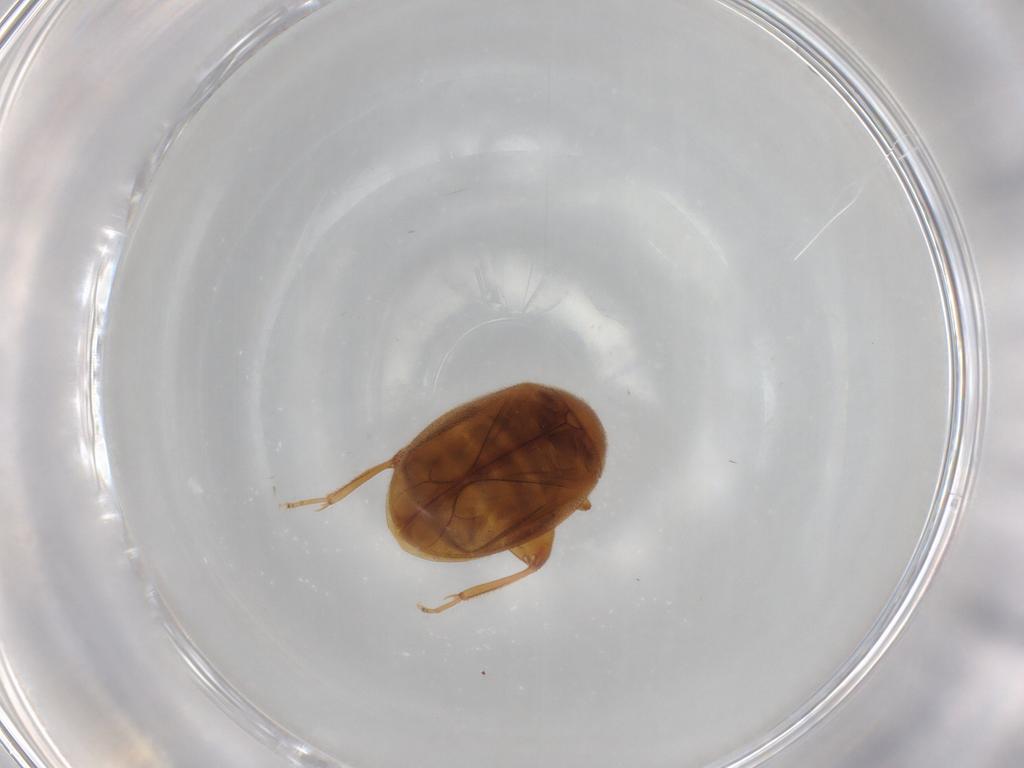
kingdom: Animalia
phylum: Arthropoda
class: Insecta
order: Coleoptera
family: Scirtidae
